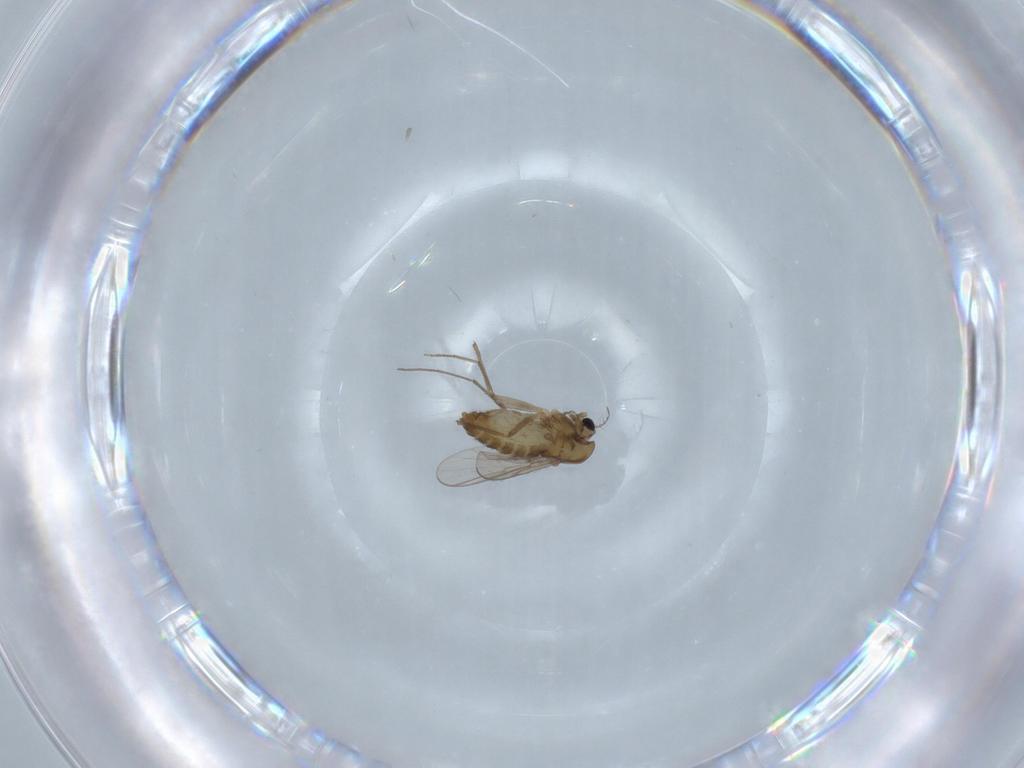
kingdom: Animalia
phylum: Arthropoda
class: Insecta
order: Diptera
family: Chironomidae
